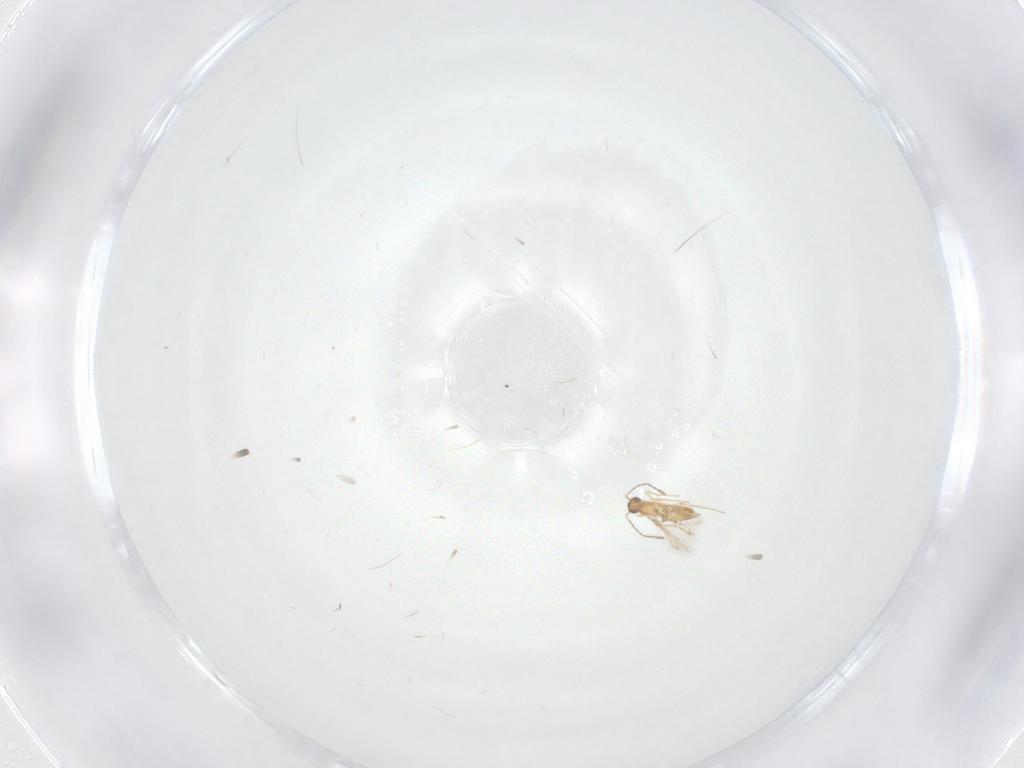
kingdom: Animalia
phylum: Arthropoda
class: Insecta
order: Hymenoptera
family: Mymaridae
